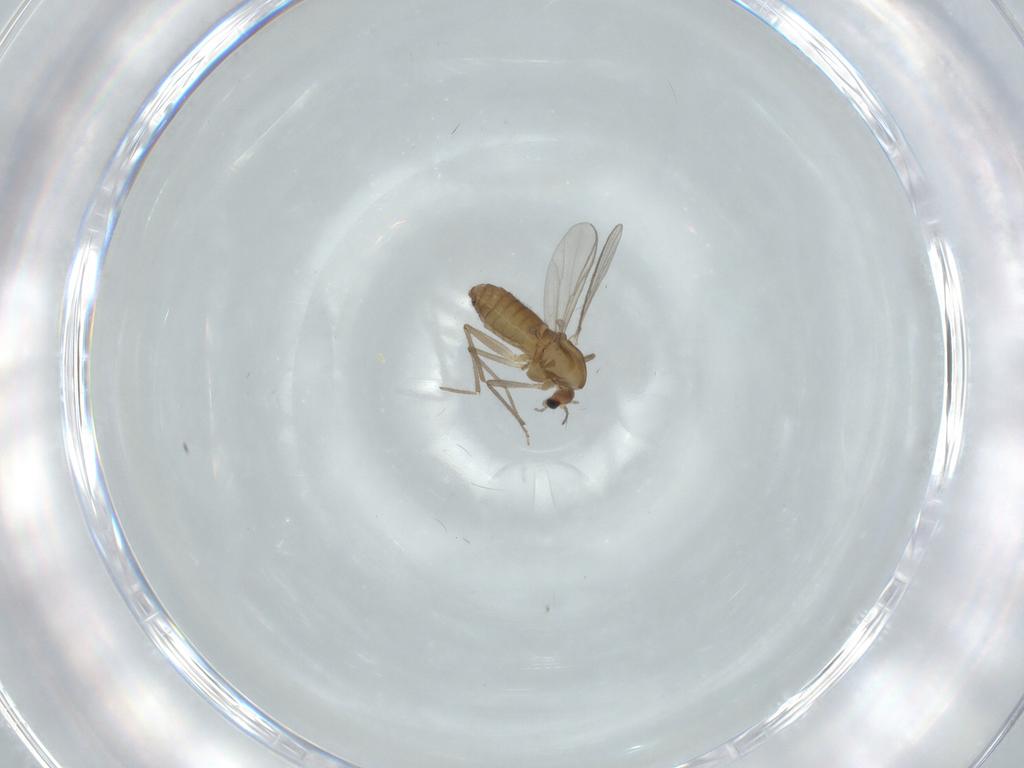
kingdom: Animalia
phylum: Arthropoda
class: Insecta
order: Diptera
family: Chironomidae
